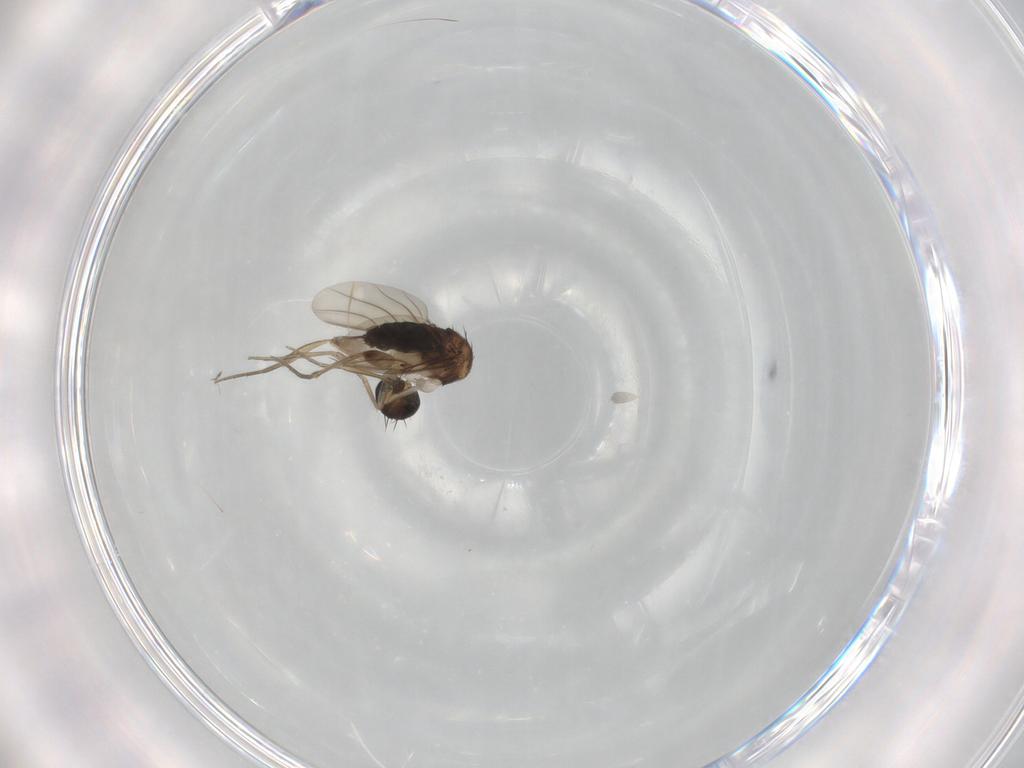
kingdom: Animalia
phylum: Arthropoda
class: Insecta
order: Diptera
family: Phoridae
